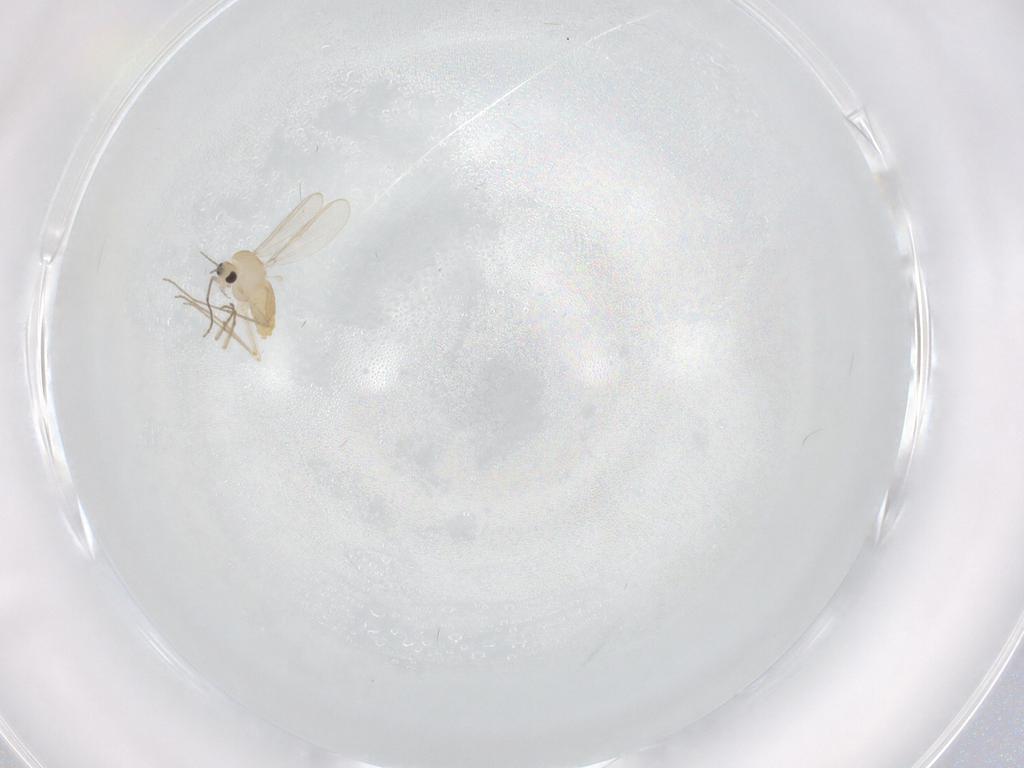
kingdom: Animalia
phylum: Arthropoda
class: Insecta
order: Diptera
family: Chironomidae
